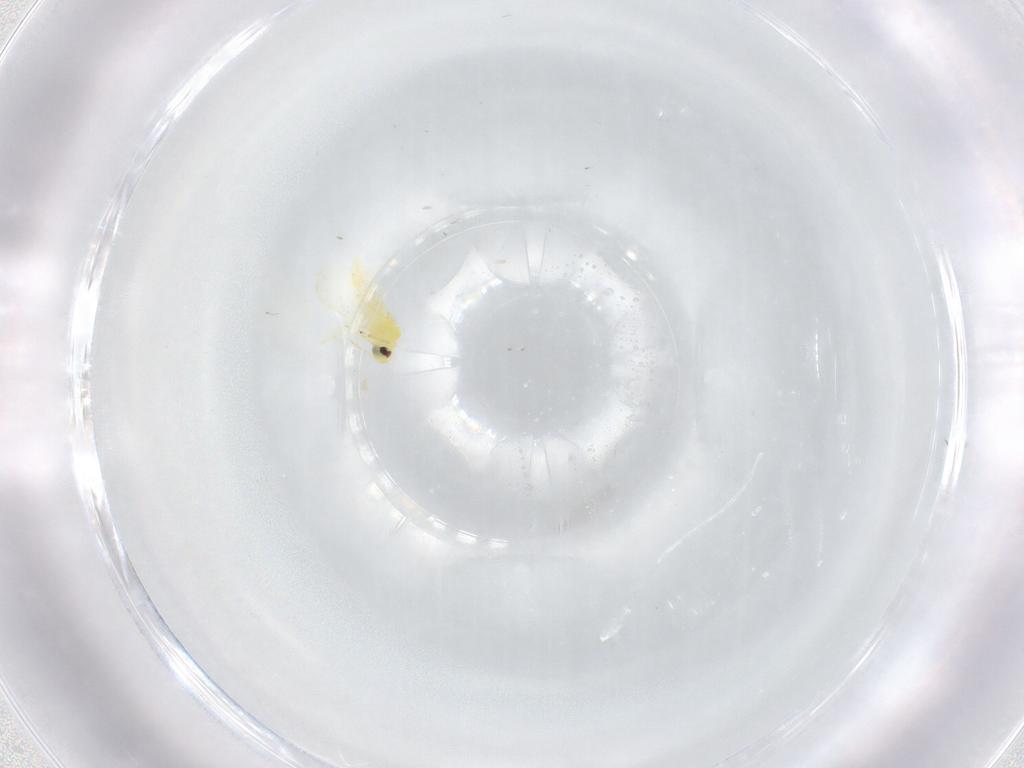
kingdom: Animalia
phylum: Arthropoda
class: Insecta
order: Hemiptera
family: Aleyrodidae
